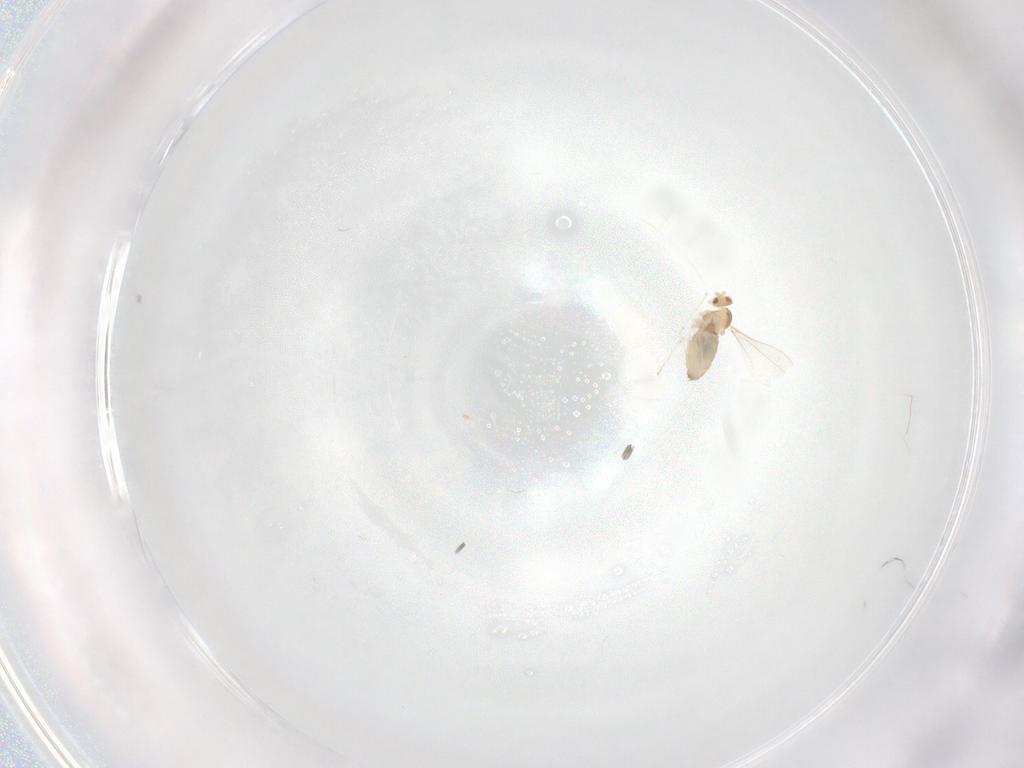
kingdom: Animalia
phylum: Arthropoda
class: Insecta
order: Diptera
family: Cecidomyiidae
